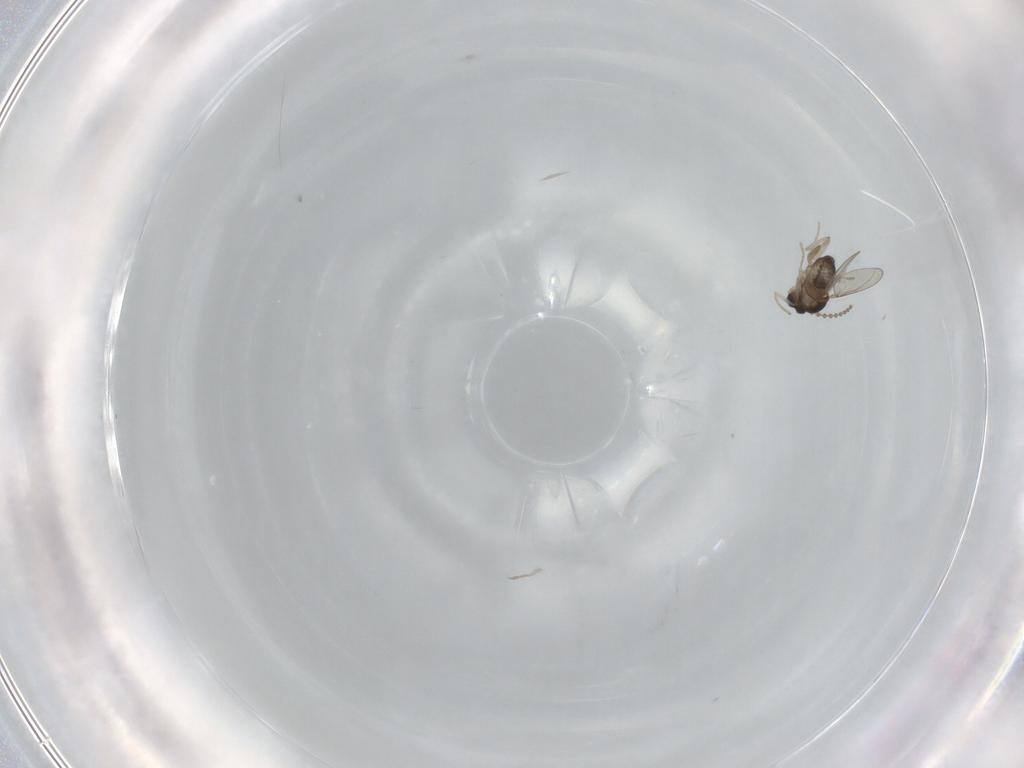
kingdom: Animalia
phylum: Arthropoda
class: Insecta
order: Diptera
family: Cecidomyiidae
